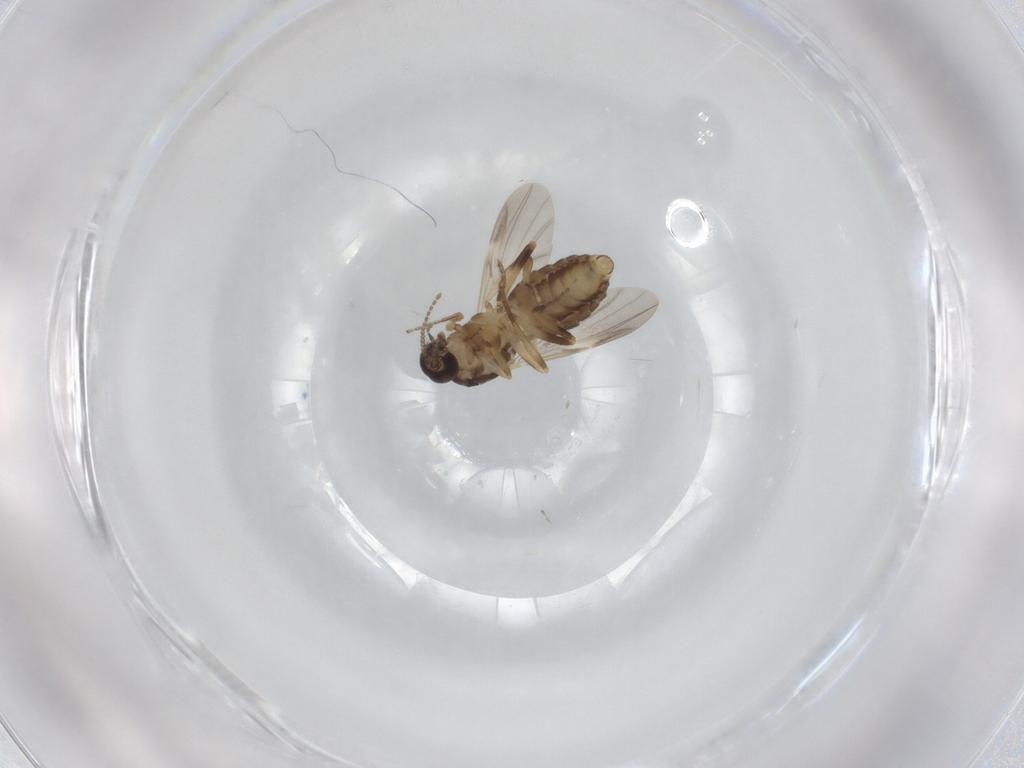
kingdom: Animalia
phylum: Arthropoda
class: Insecta
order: Diptera
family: Ceratopogonidae
